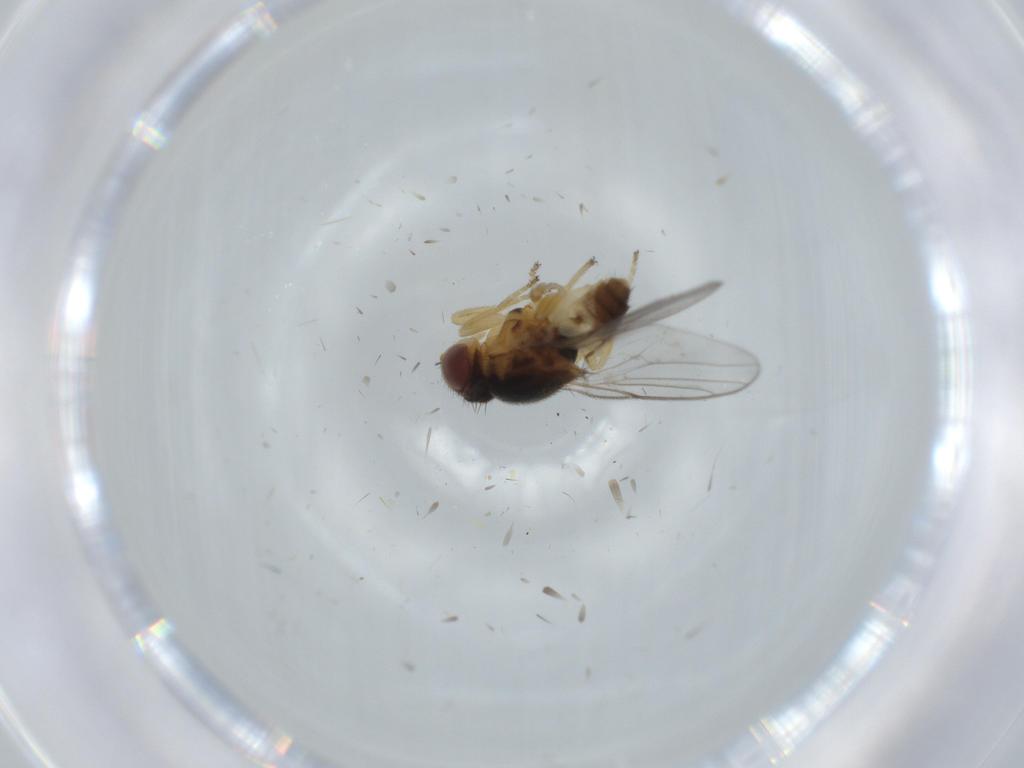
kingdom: Animalia
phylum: Arthropoda
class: Insecta
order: Diptera
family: Chloropidae
